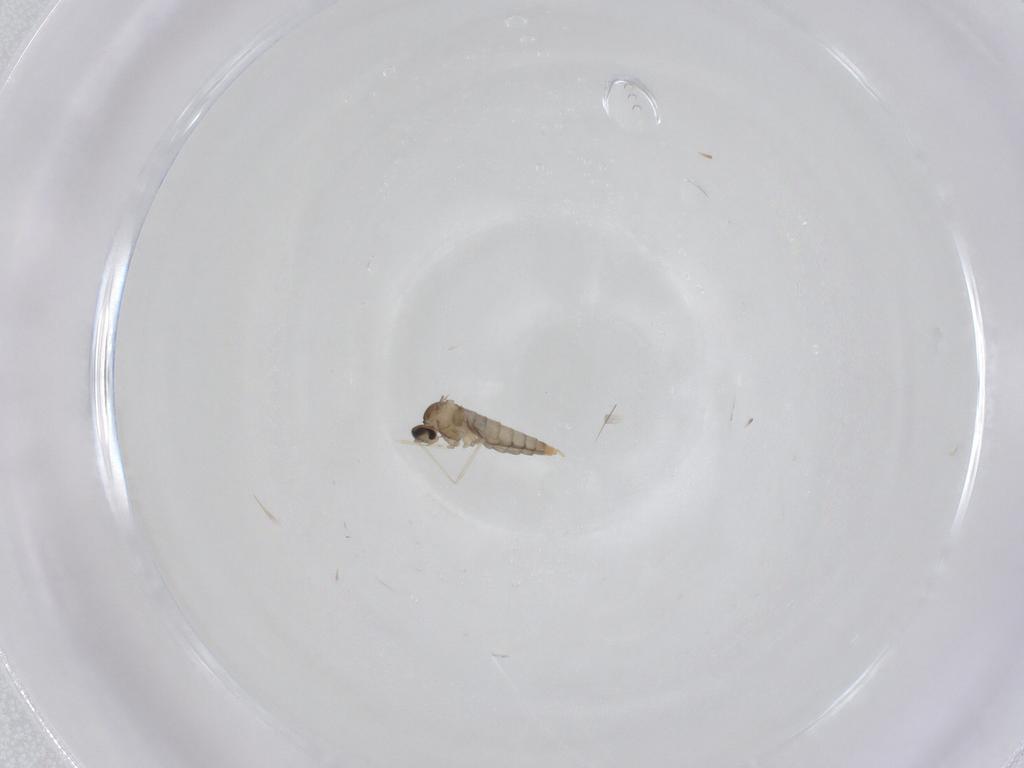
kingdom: Animalia
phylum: Arthropoda
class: Insecta
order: Diptera
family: Cecidomyiidae
